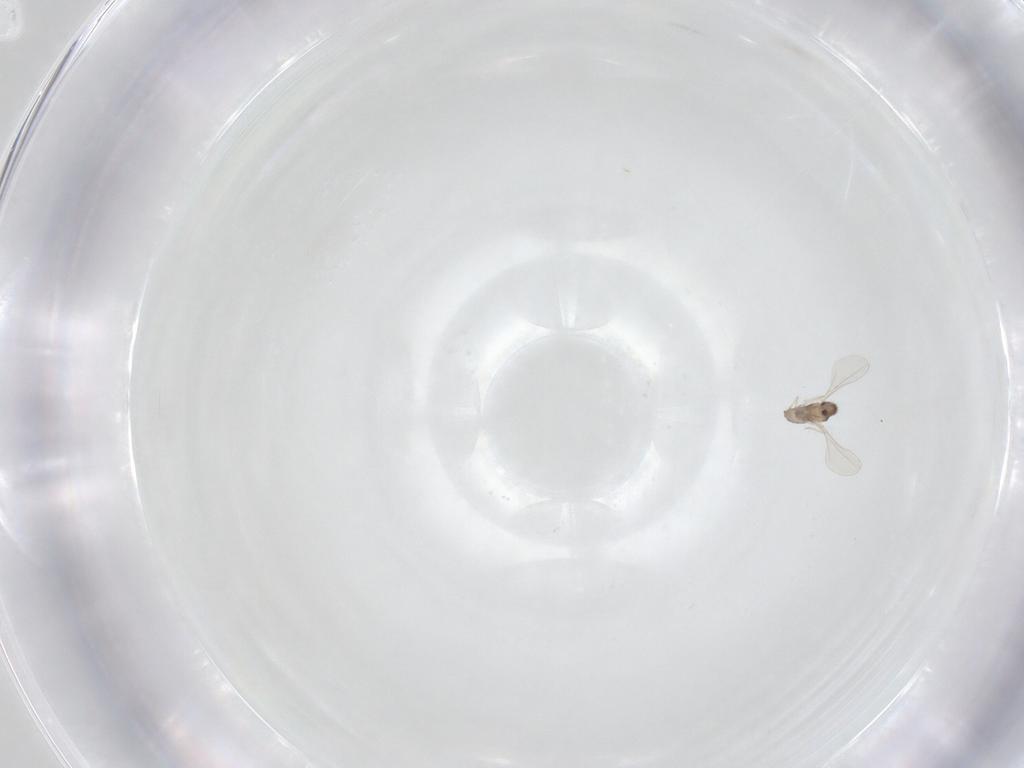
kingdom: Animalia
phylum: Arthropoda
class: Insecta
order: Diptera
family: Cecidomyiidae
